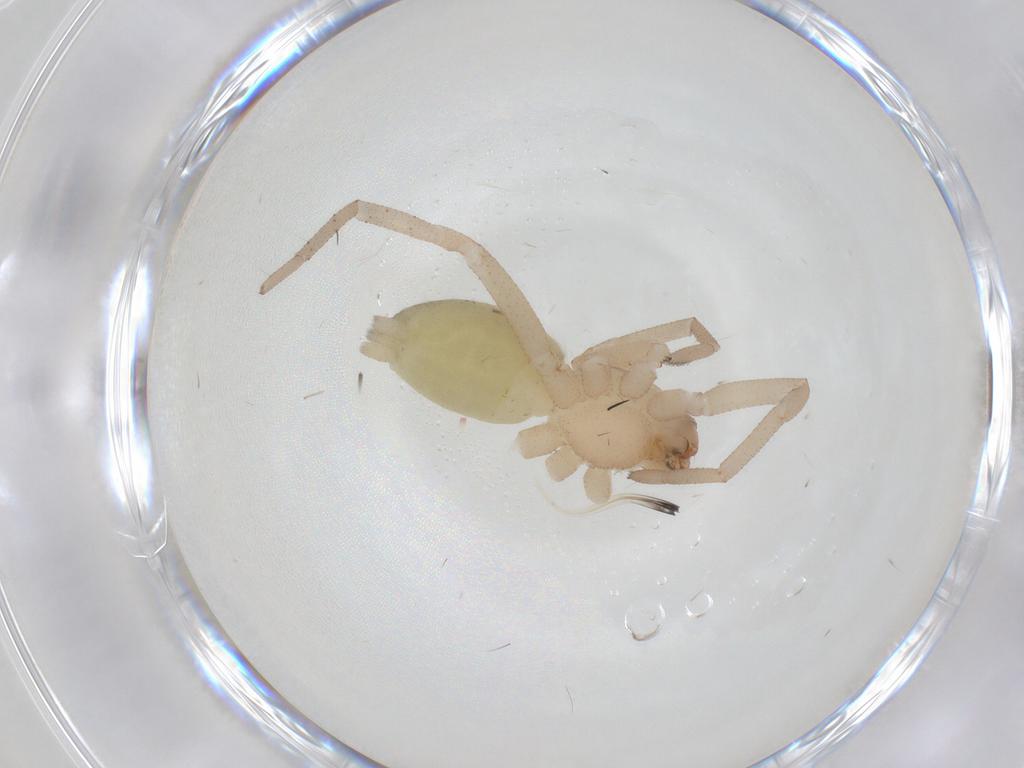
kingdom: Animalia
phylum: Arthropoda
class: Arachnida
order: Araneae
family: Gnaphosidae
